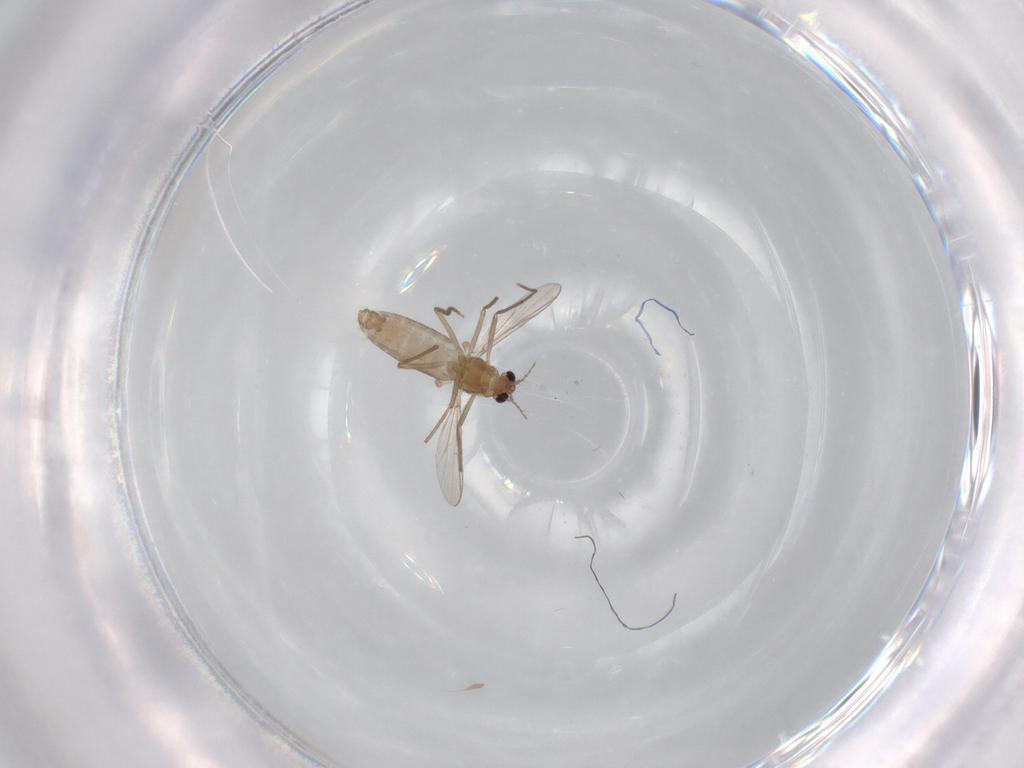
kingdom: Animalia
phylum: Arthropoda
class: Insecta
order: Diptera
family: Chironomidae
